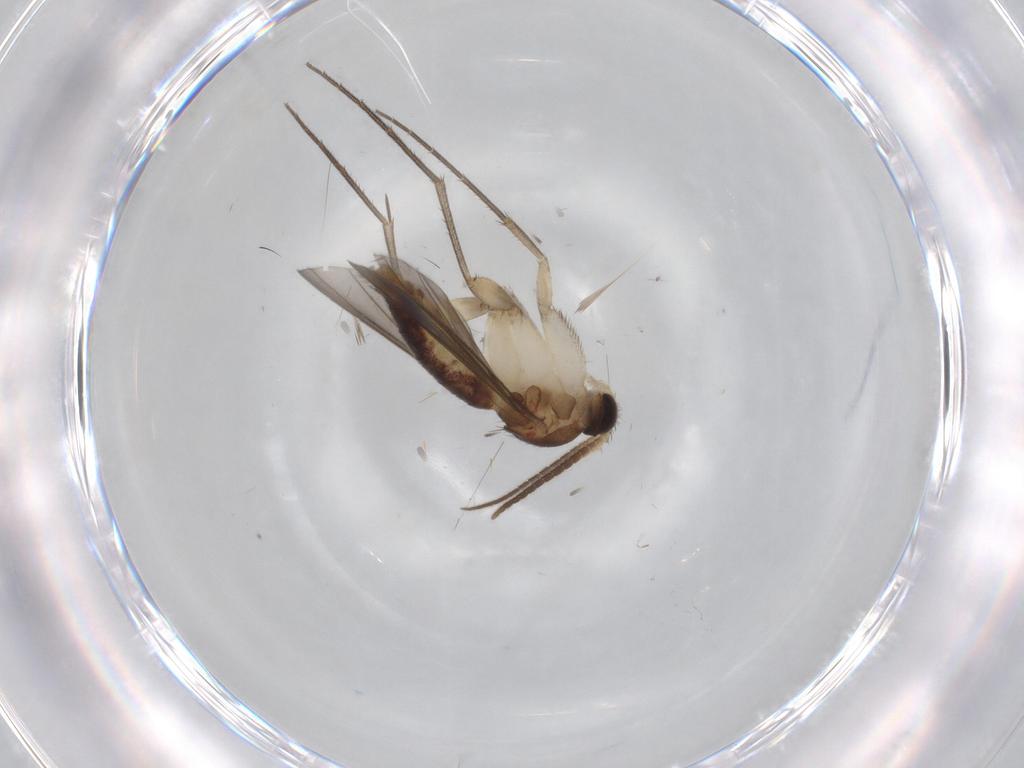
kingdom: Animalia
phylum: Arthropoda
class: Insecta
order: Diptera
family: Mycetophilidae
